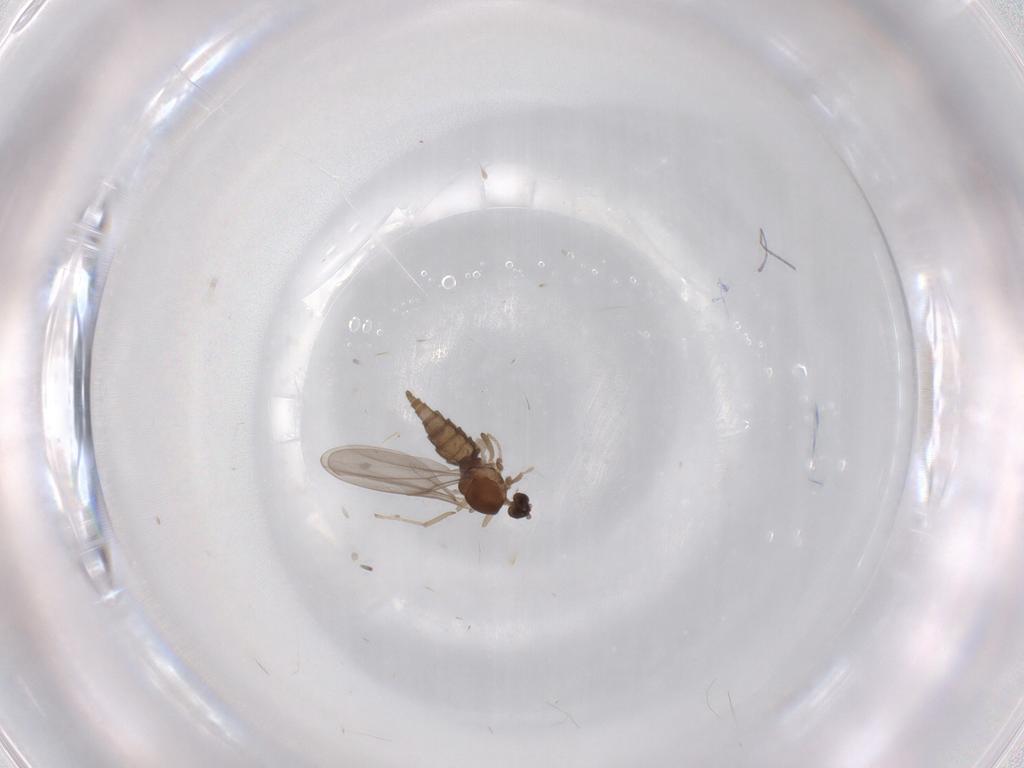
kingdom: Animalia
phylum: Arthropoda
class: Insecta
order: Diptera
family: Cecidomyiidae
